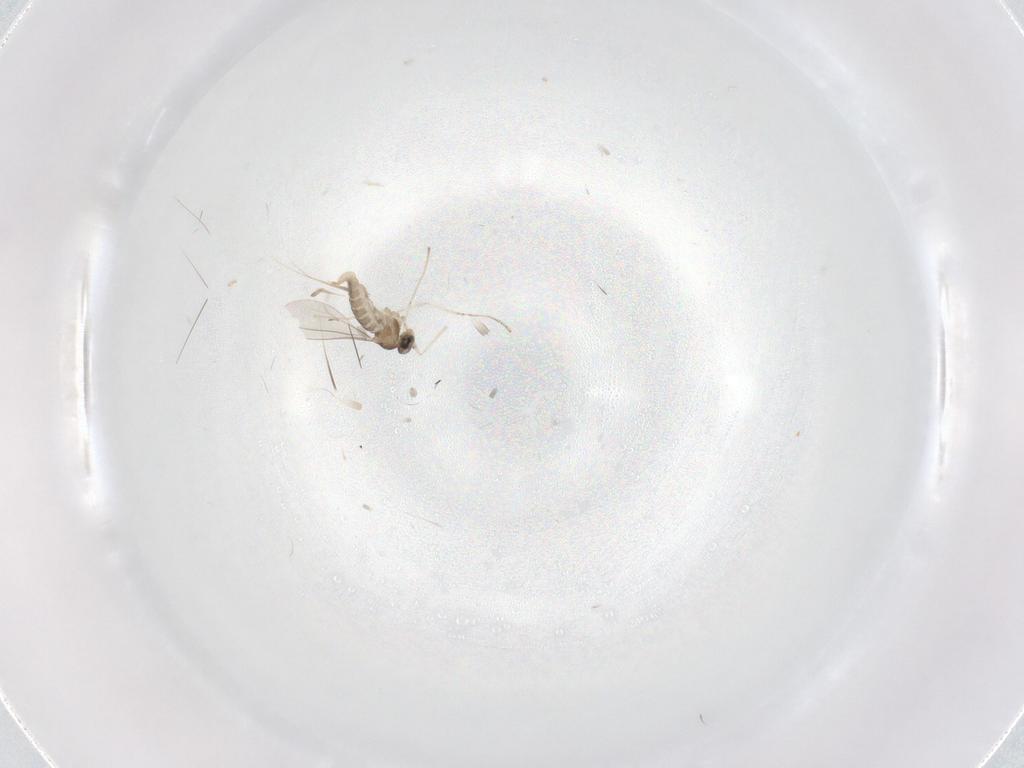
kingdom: Animalia
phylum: Arthropoda
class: Insecta
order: Diptera
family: Cecidomyiidae
